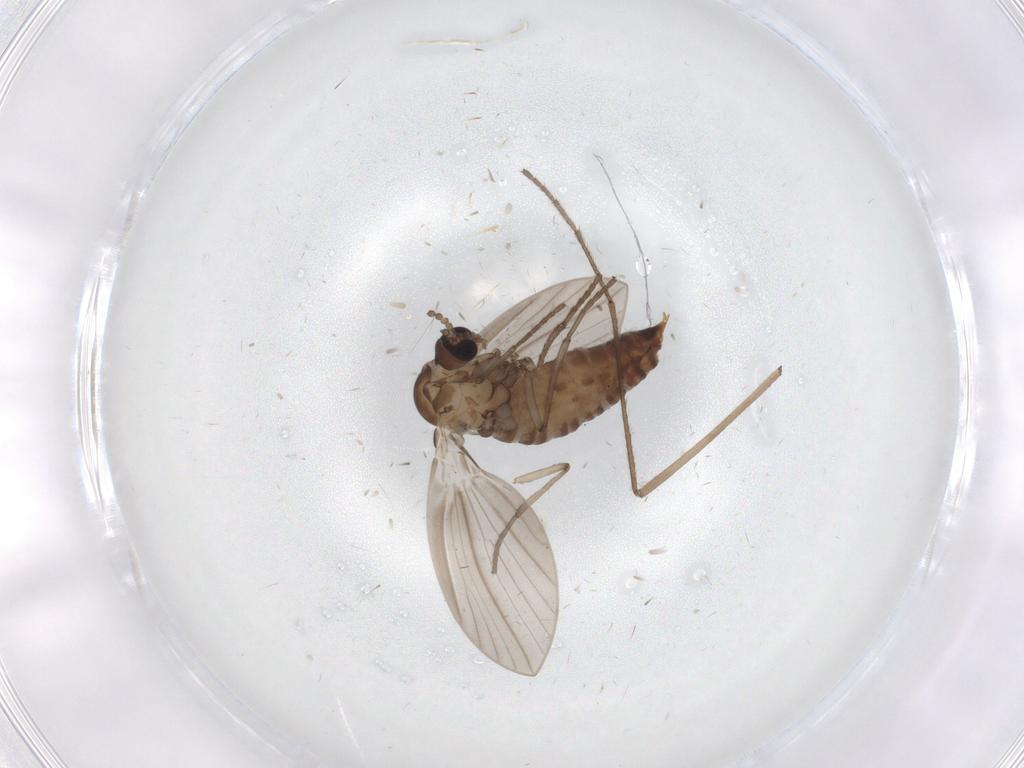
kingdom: Animalia
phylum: Arthropoda
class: Insecta
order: Diptera
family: Psychodidae
